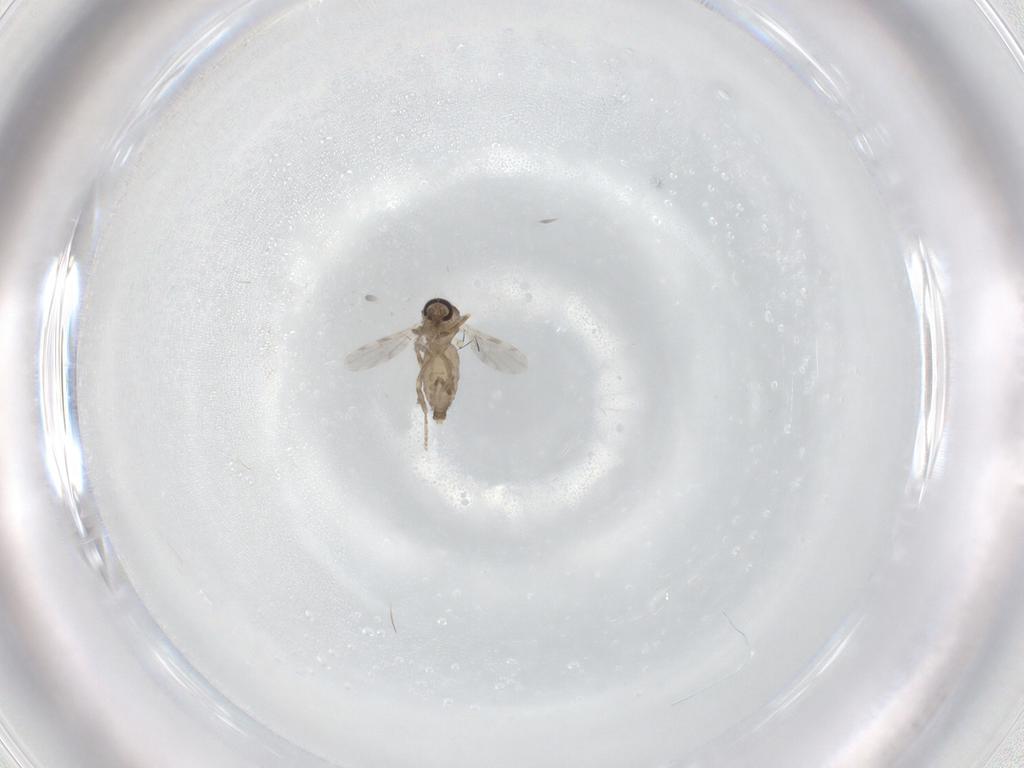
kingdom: Animalia
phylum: Arthropoda
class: Insecta
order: Diptera
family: Ceratopogonidae
